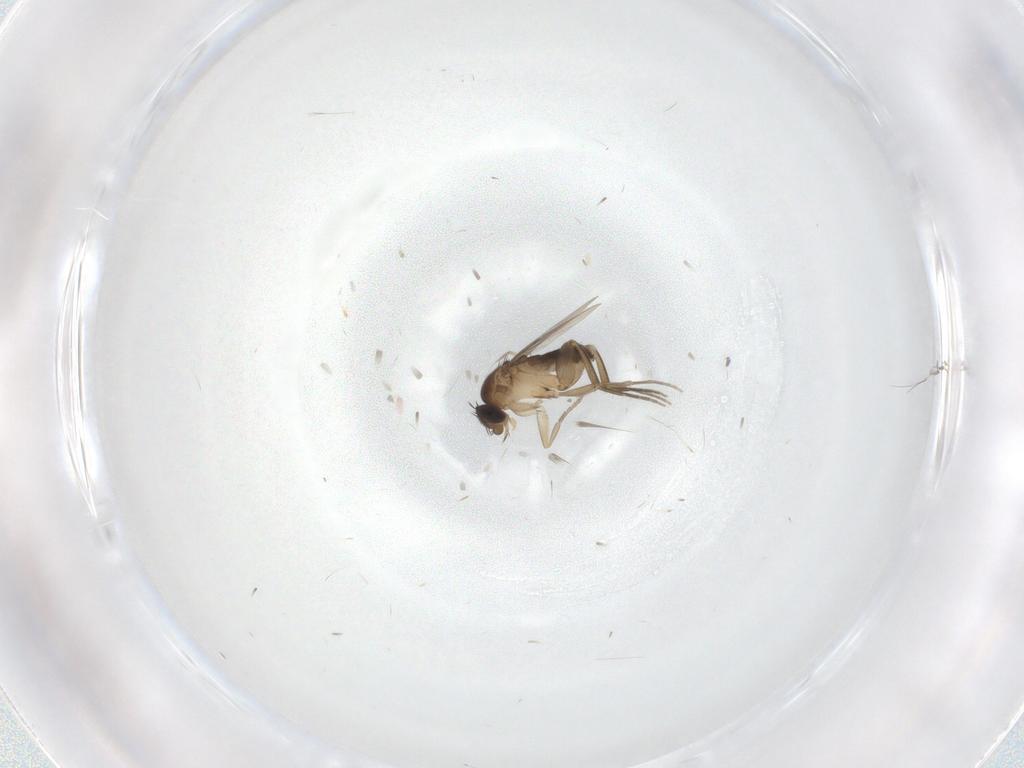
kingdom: Animalia
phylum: Arthropoda
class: Insecta
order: Diptera
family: Phoridae
